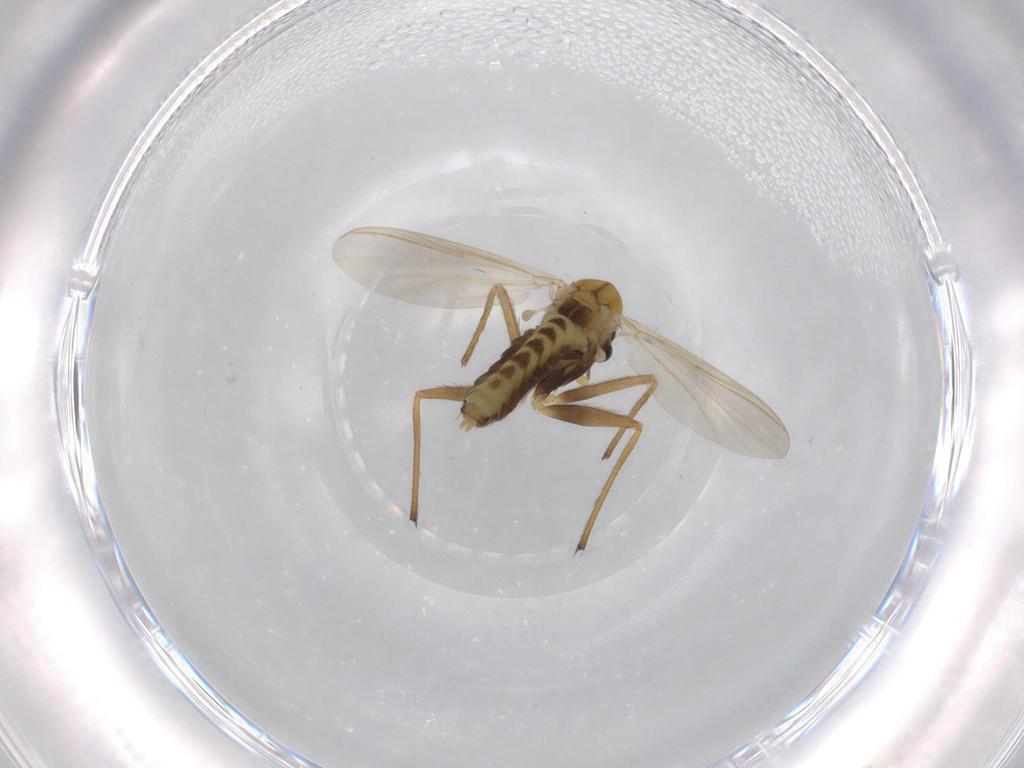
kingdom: Animalia
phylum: Arthropoda
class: Insecta
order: Diptera
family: Chironomidae
